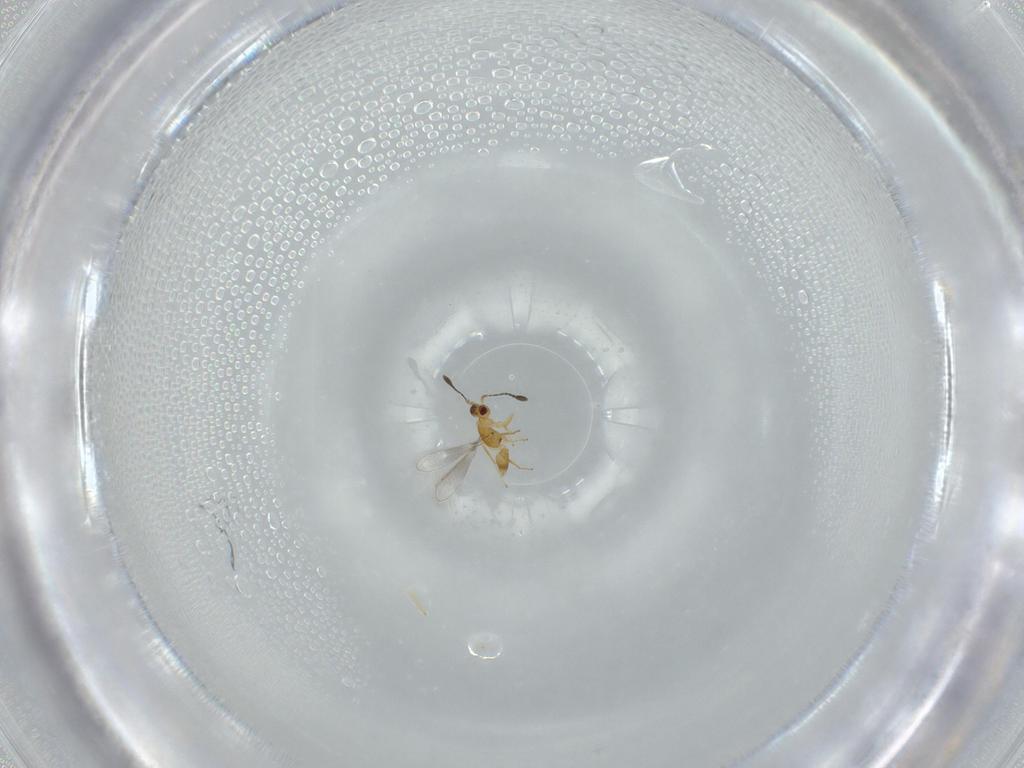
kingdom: Animalia
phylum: Arthropoda
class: Insecta
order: Hymenoptera
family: Mymaridae
